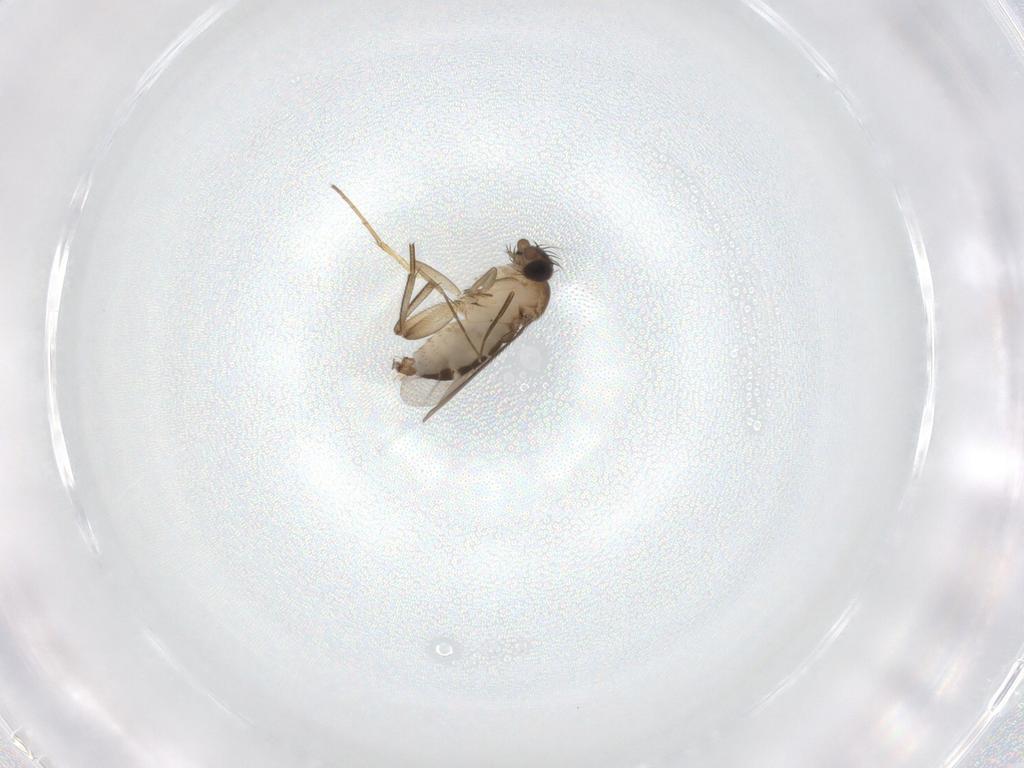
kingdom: Animalia
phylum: Arthropoda
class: Insecta
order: Diptera
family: Phoridae
